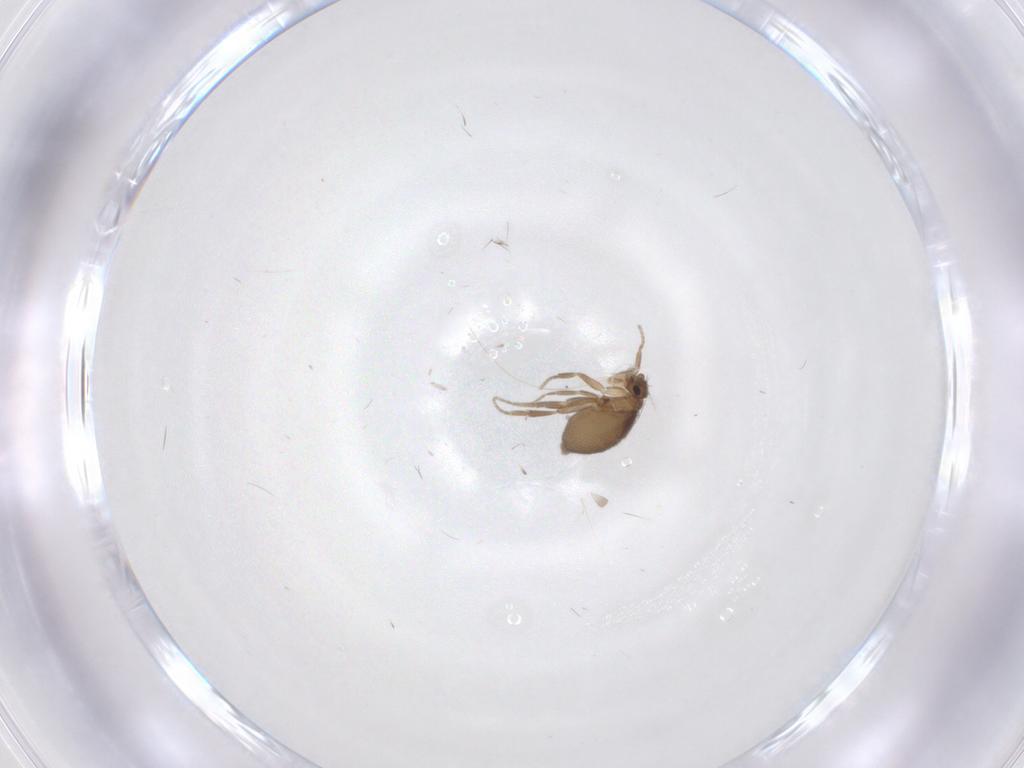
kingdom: Animalia
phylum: Arthropoda
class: Insecta
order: Diptera
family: Phoridae
